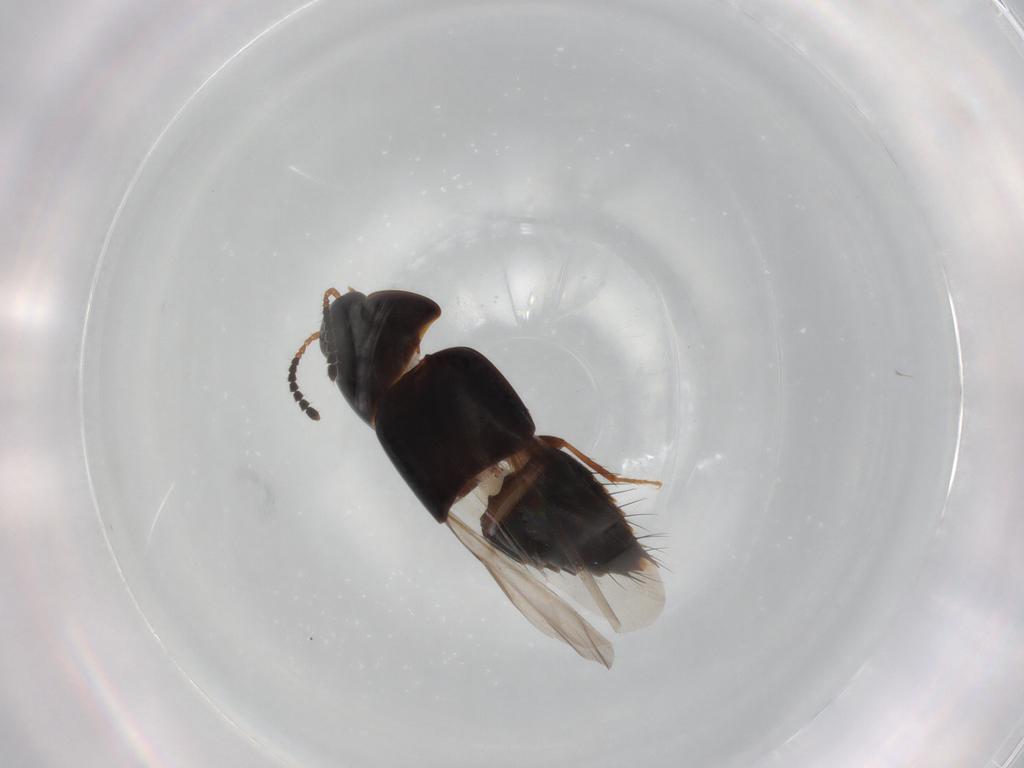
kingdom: Animalia
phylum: Arthropoda
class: Insecta
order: Coleoptera
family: Staphylinidae
